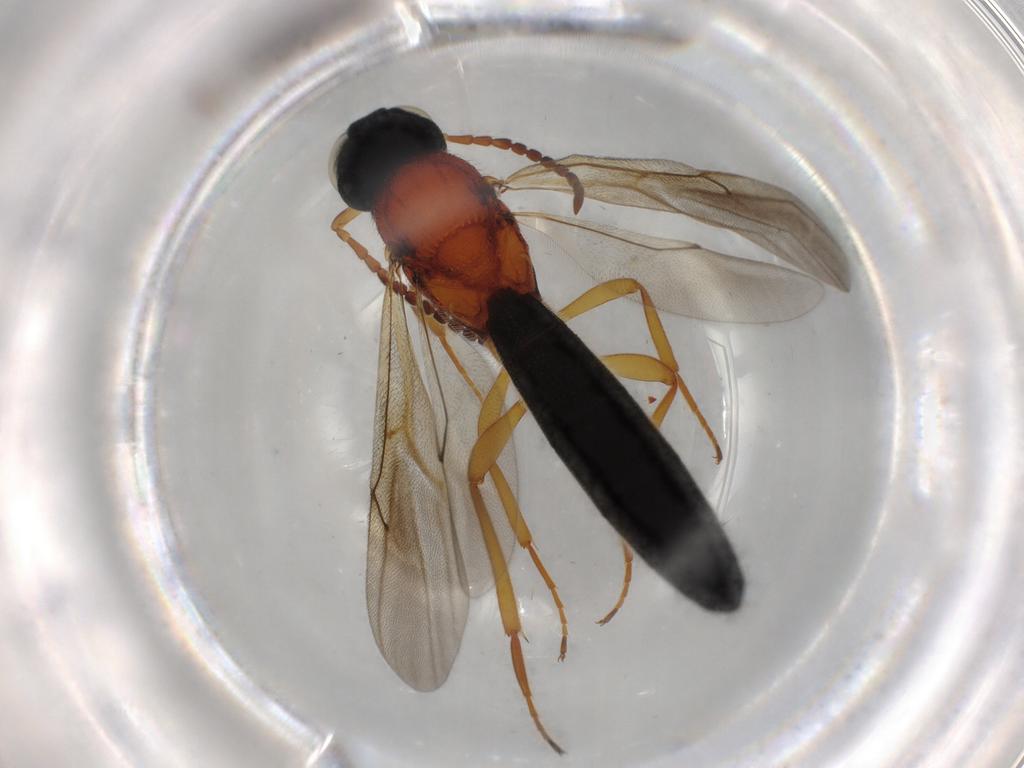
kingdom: Animalia
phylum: Arthropoda
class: Insecta
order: Hymenoptera
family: Scelionidae
